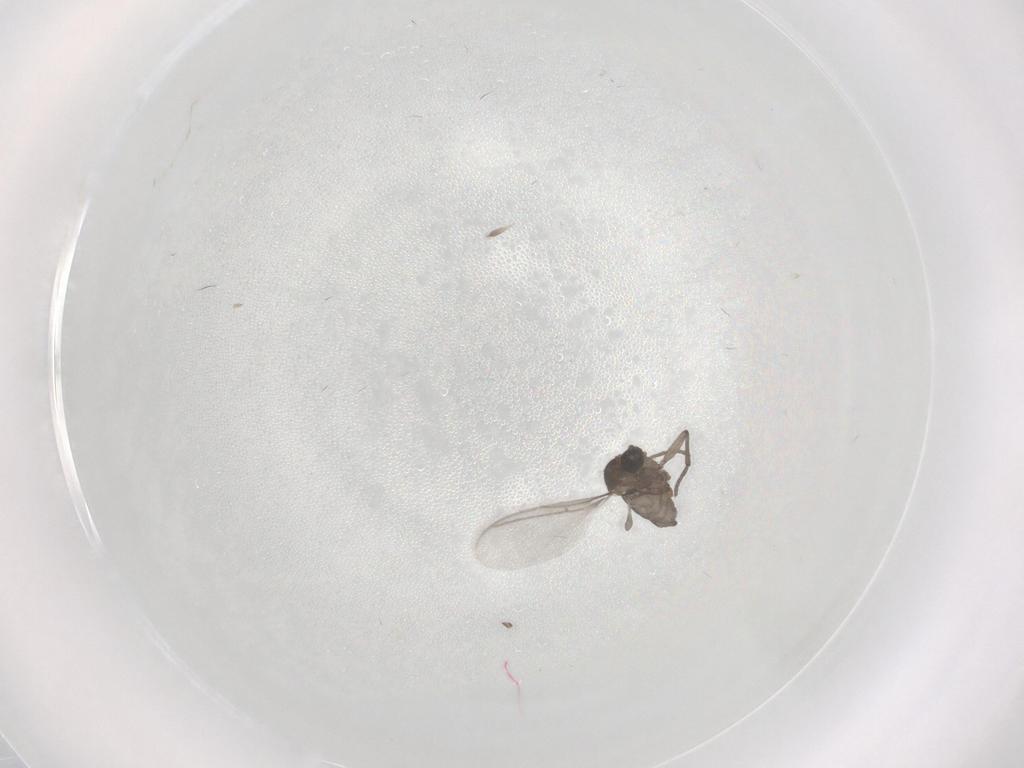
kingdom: Animalia
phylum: Arthropoda
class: Insecta
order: Diptera
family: Sciaridae
